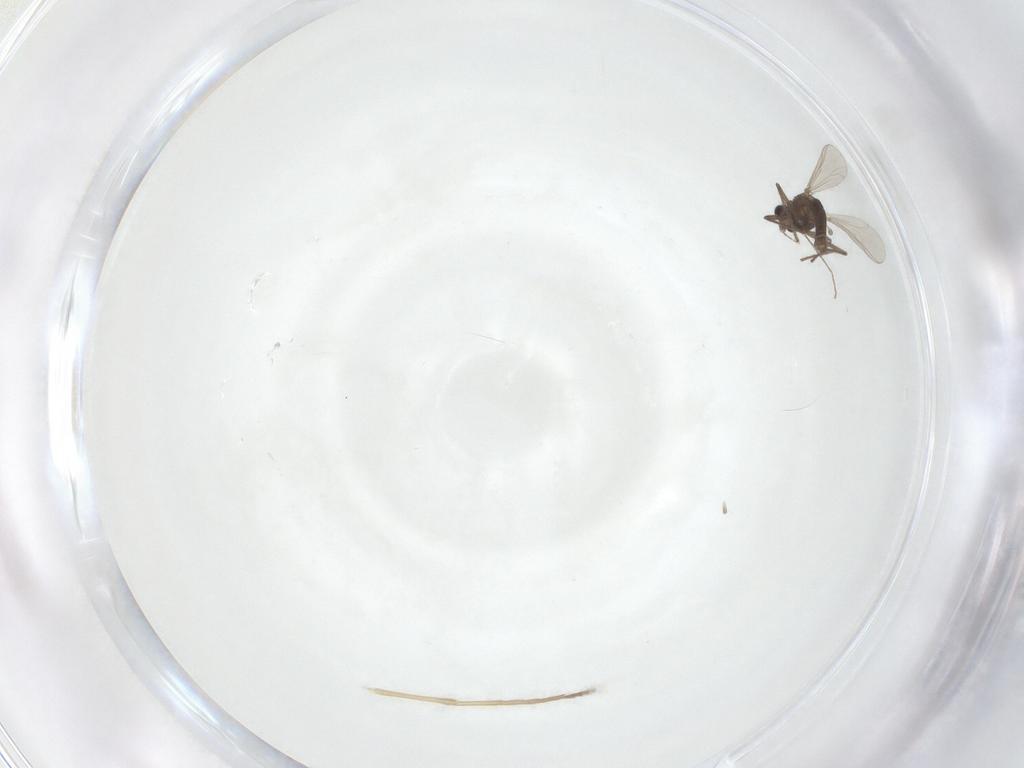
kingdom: Animalia
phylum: Arthropoda
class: Insecta
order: Diptera
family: Chironomidae
